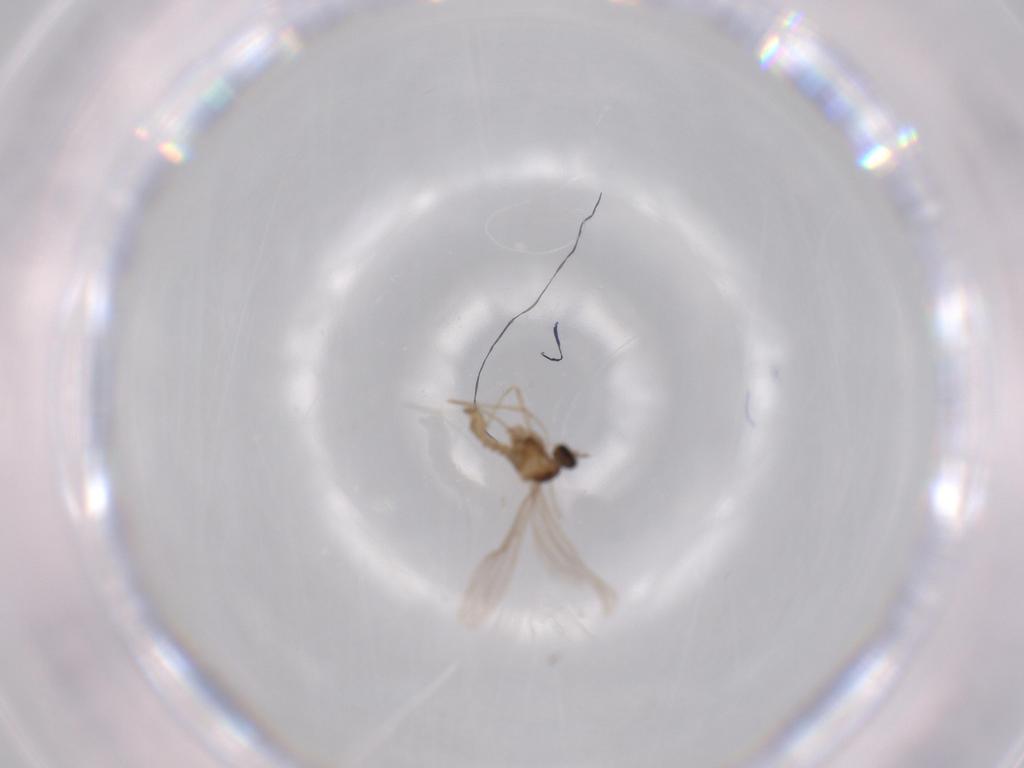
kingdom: Animalia
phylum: Arthropoda
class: Insecta
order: Diptera
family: Cecidomyiidae
